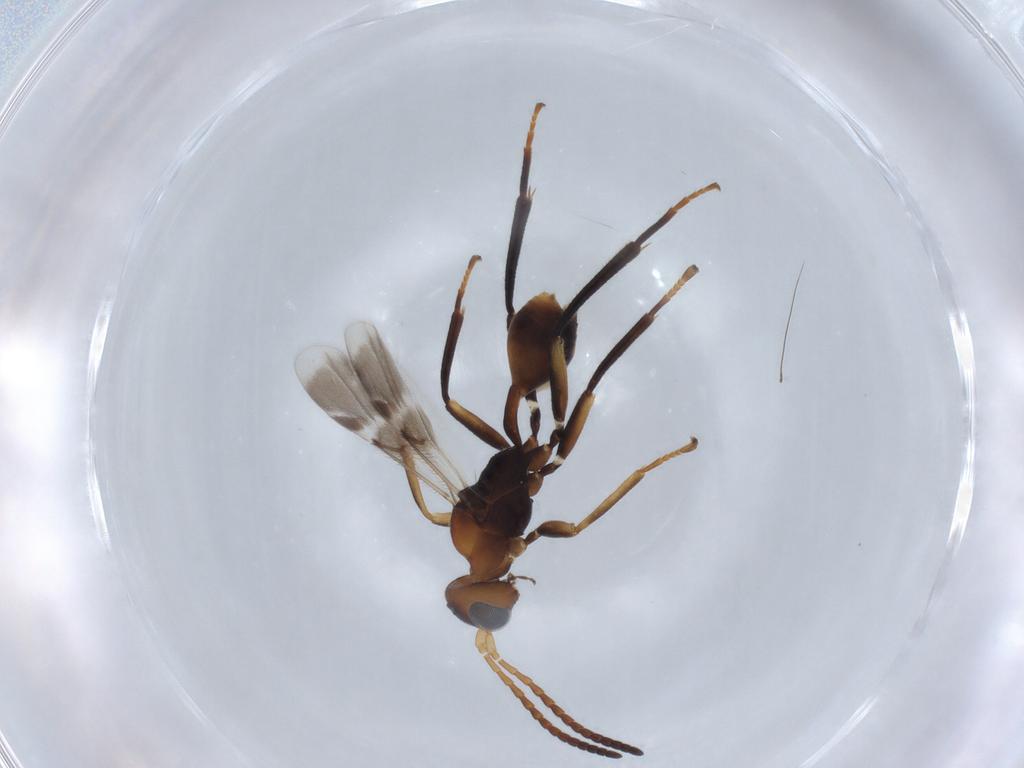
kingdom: Animalia
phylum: Arthropoda
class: Insecta
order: Hymenoptera
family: Braconidae
